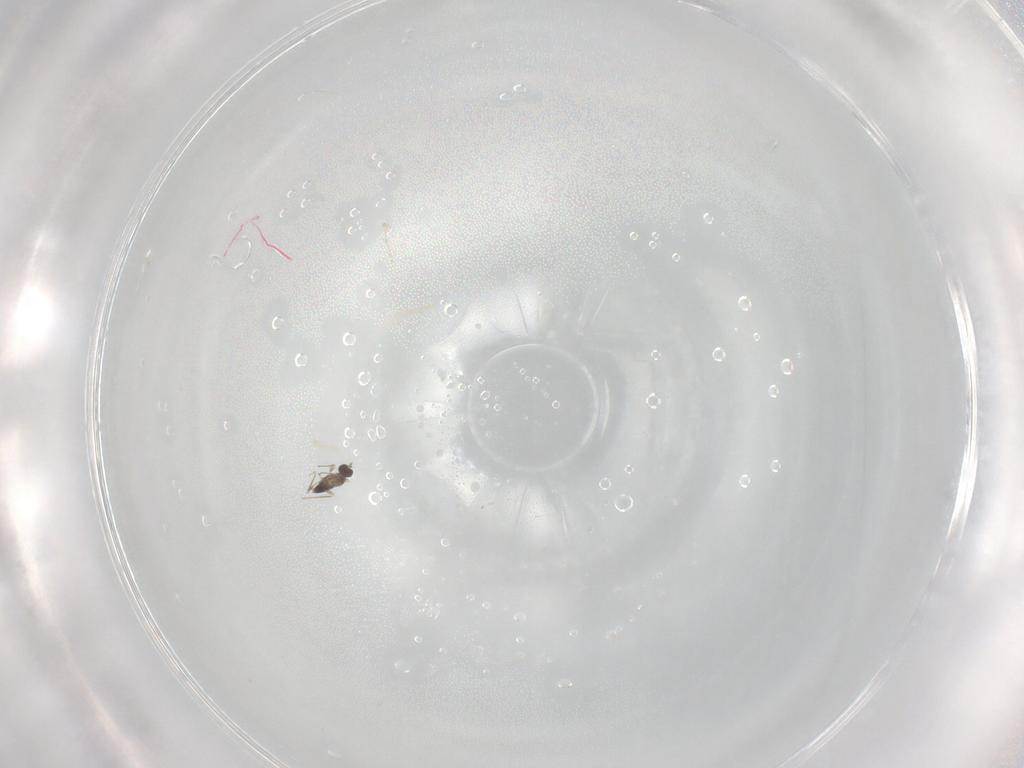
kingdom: Animalia
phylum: Arthropoda
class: Insecta
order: Hymenoptera
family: Mymaridae
